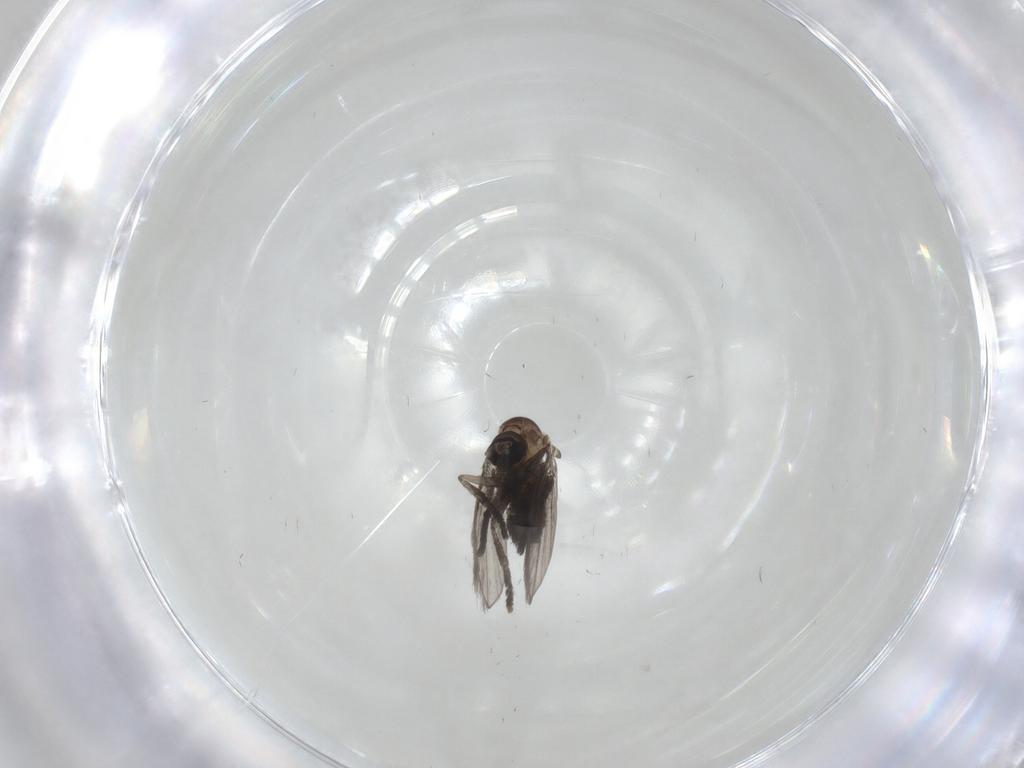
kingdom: Animalia
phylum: Arthropoda
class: Insecta
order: Diptera
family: Psychodidae
